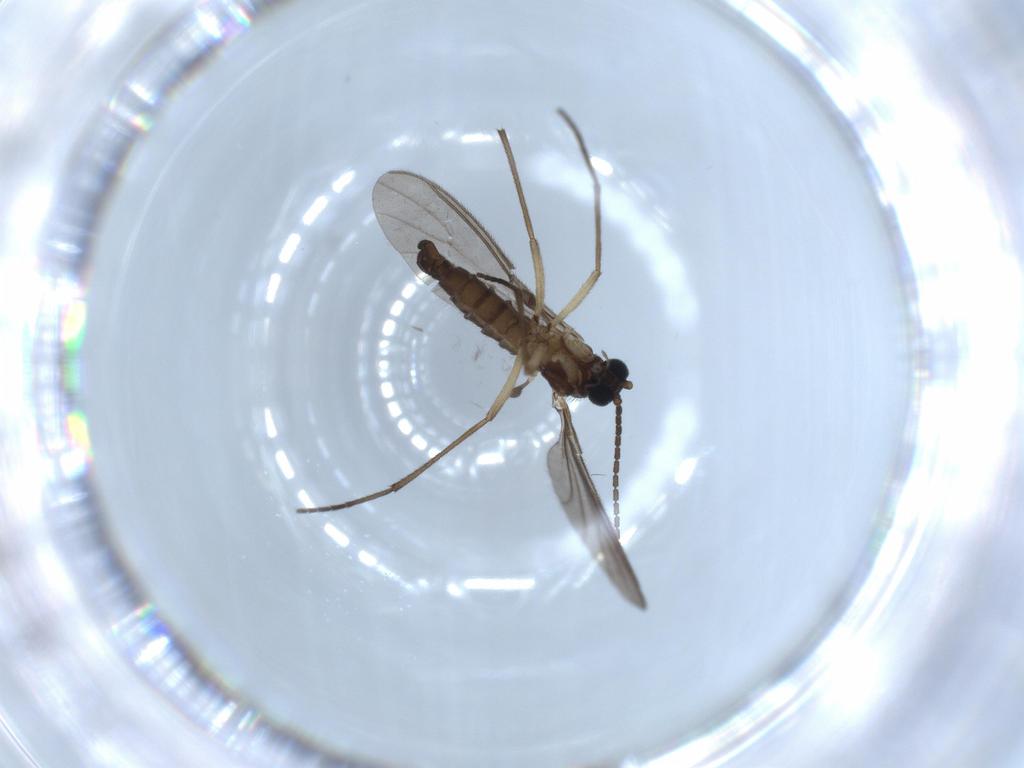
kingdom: Animalia
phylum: Arthropoda
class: Insecta
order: Diptera
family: Sciaridae
